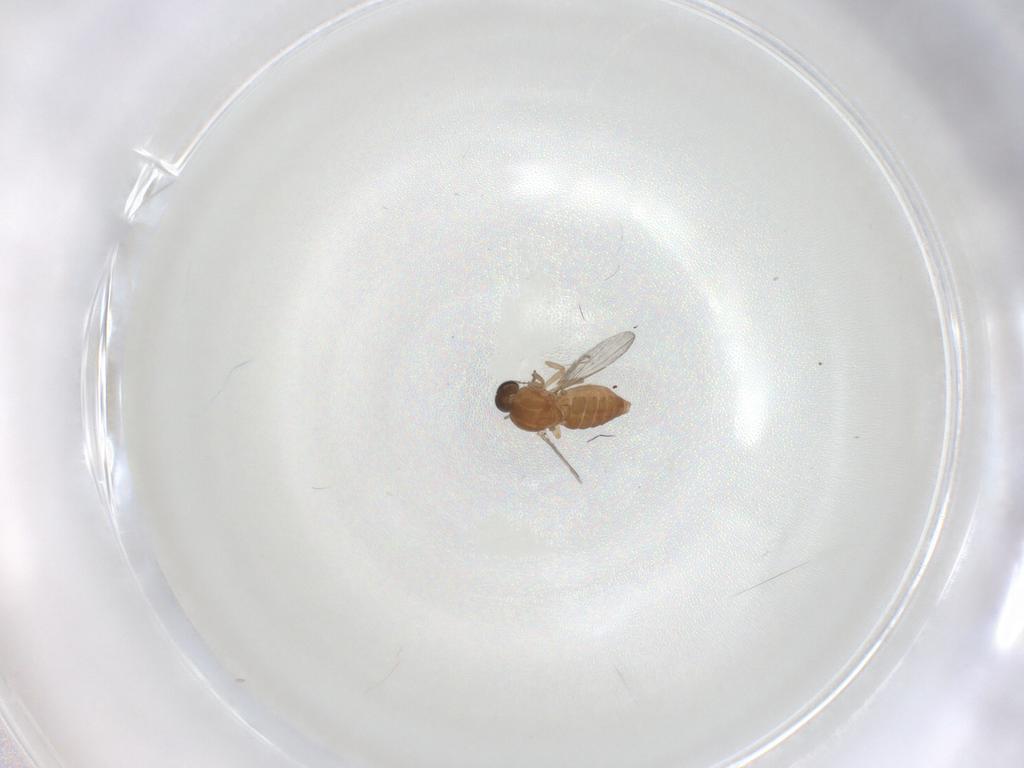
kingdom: Animalia
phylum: Arthropoda
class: Insecta
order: Diptera
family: Ceratopogonidae
